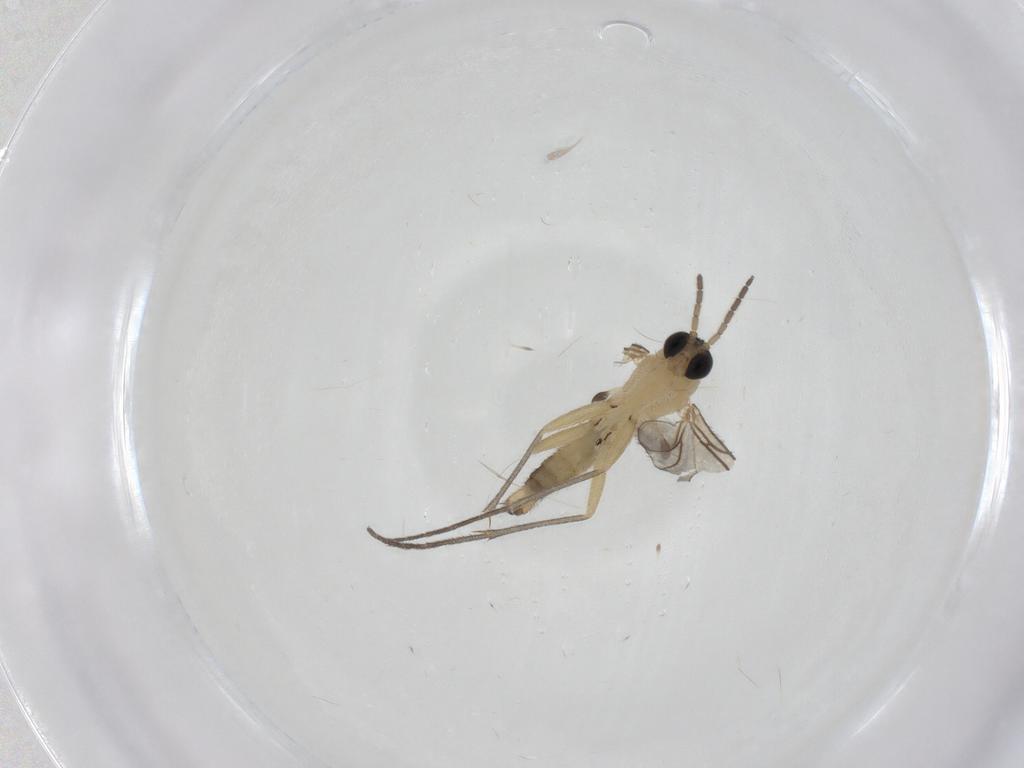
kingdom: Animalia
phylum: Arthropoda
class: Insecta
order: Diptera
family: Sciaridae
